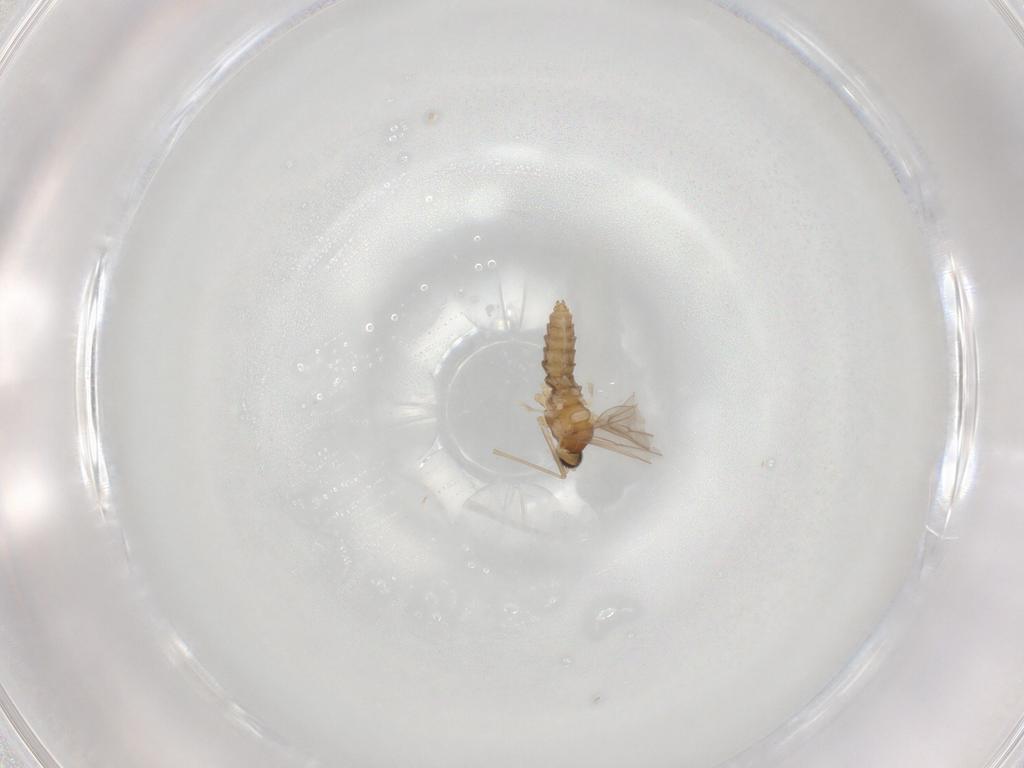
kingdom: Animalia
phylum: Arthropoda
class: Insecta
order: Diptera
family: Cecidomyiidae
